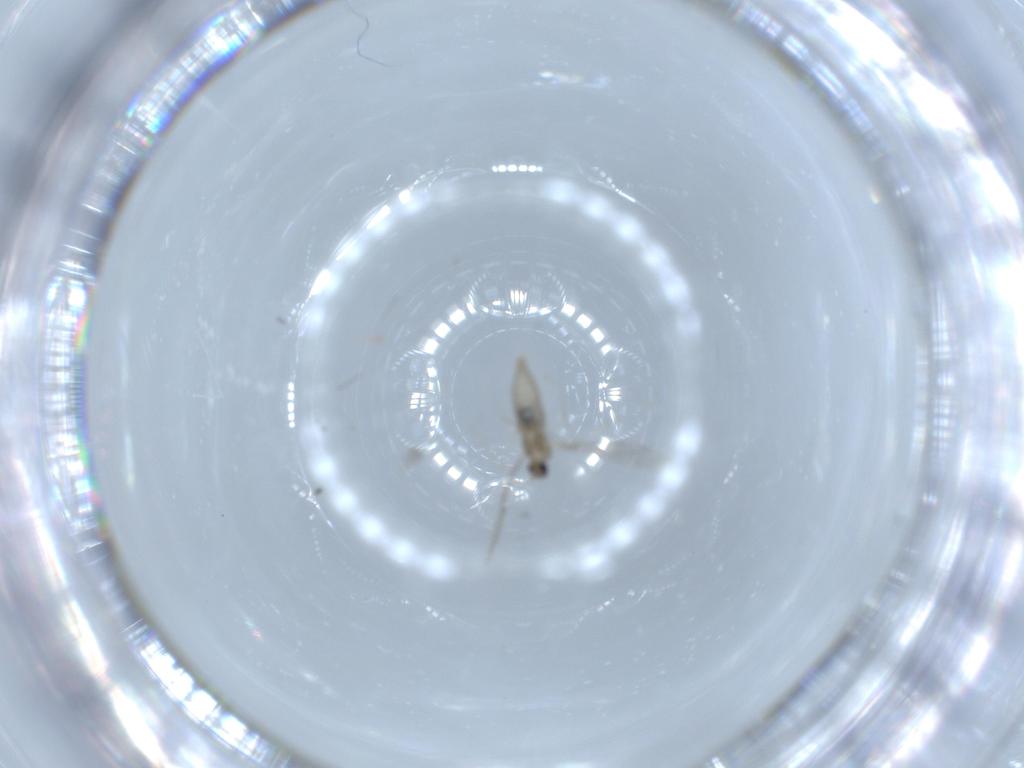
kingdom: Animalia
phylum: Arthropoda
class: Insecta
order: Diptera
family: Cecidomyiidae
